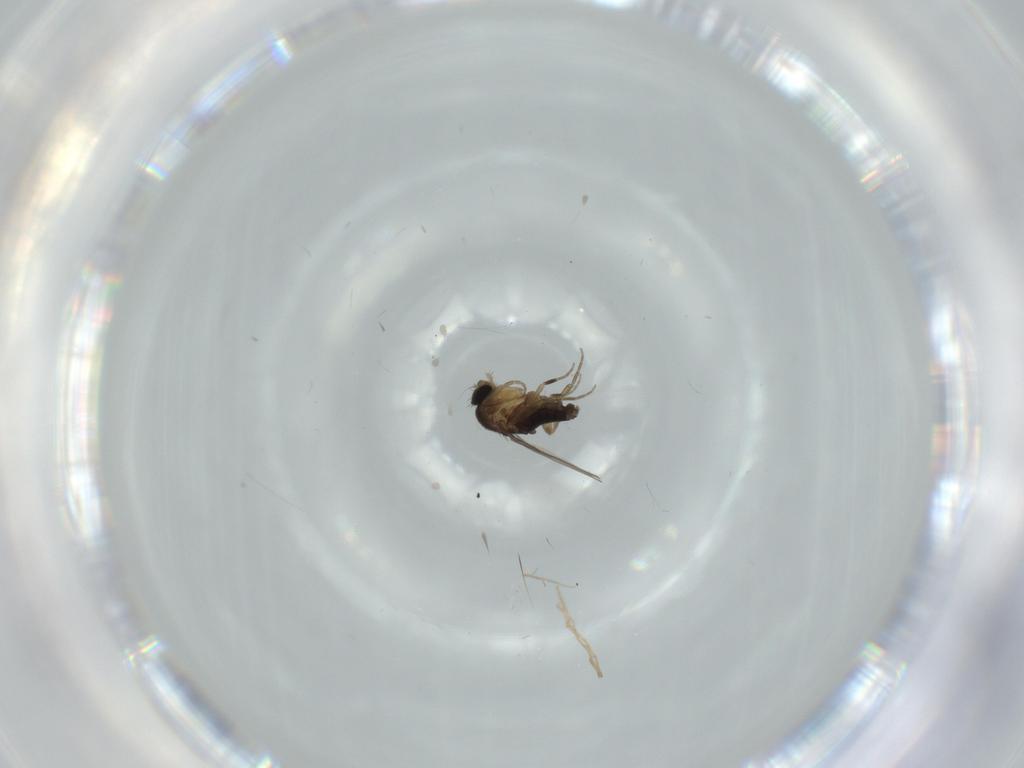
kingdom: Animalia
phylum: Arthropoda
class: Insecta
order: Diptera
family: Phoridae
